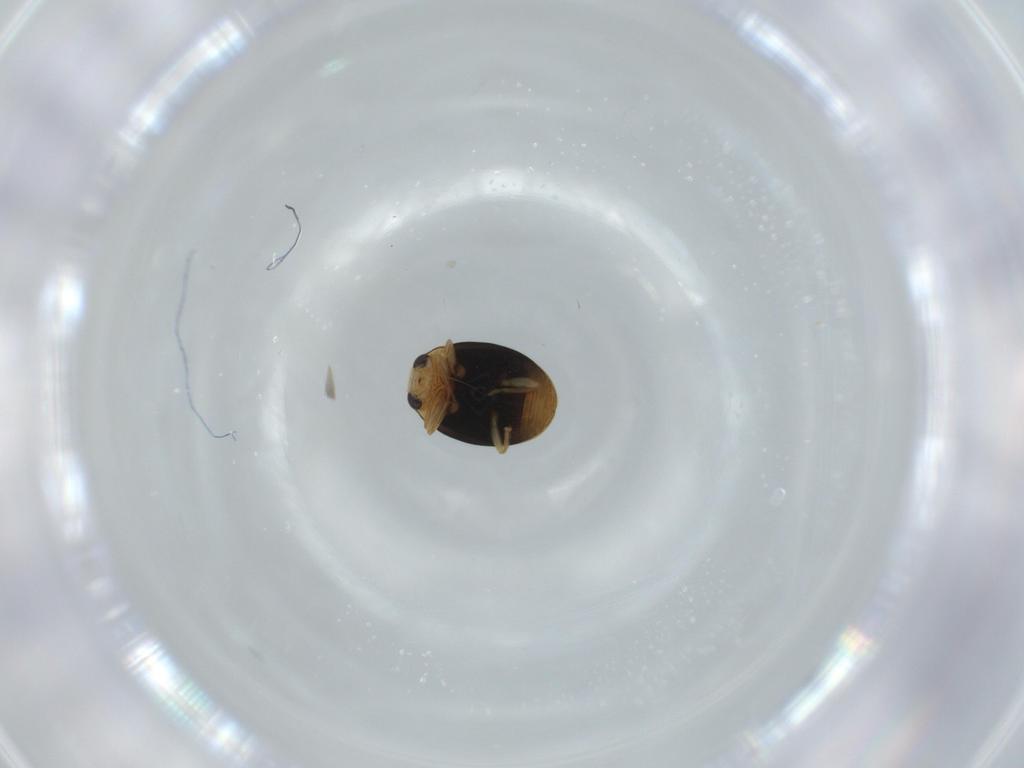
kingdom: Animalia
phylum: Arthropoda
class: Insecta
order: Coleoptera
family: Coccinellidae
